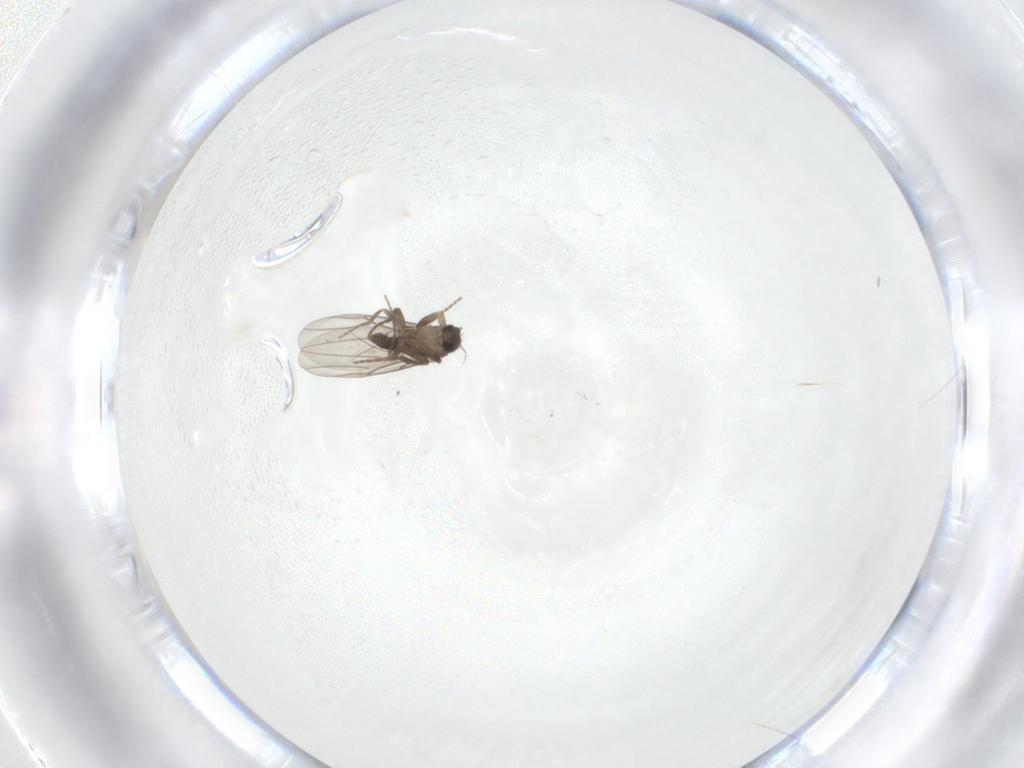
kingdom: Animalia
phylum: Arthropoda
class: Insecta
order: Diptera
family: Phoridae
